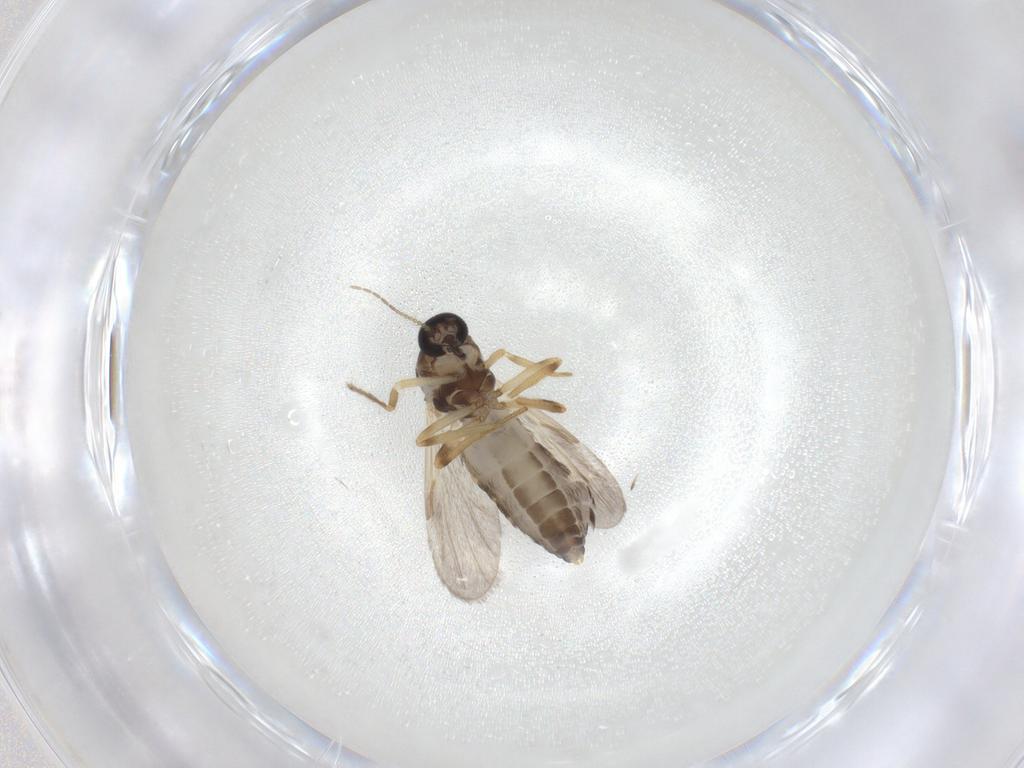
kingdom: Animalia
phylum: Arthropoda
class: Insecta
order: Diptera
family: Ceratopogonidae
